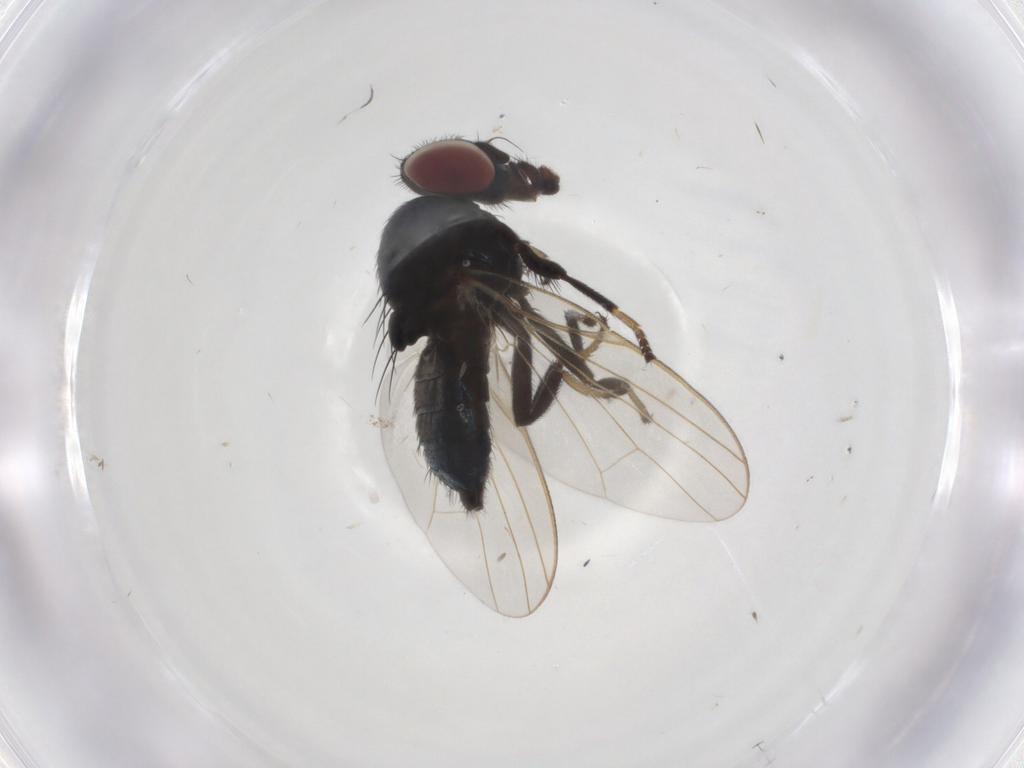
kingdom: Animalia
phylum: Arthropoda
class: Insecta
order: Diptera
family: Lonchaeidae
